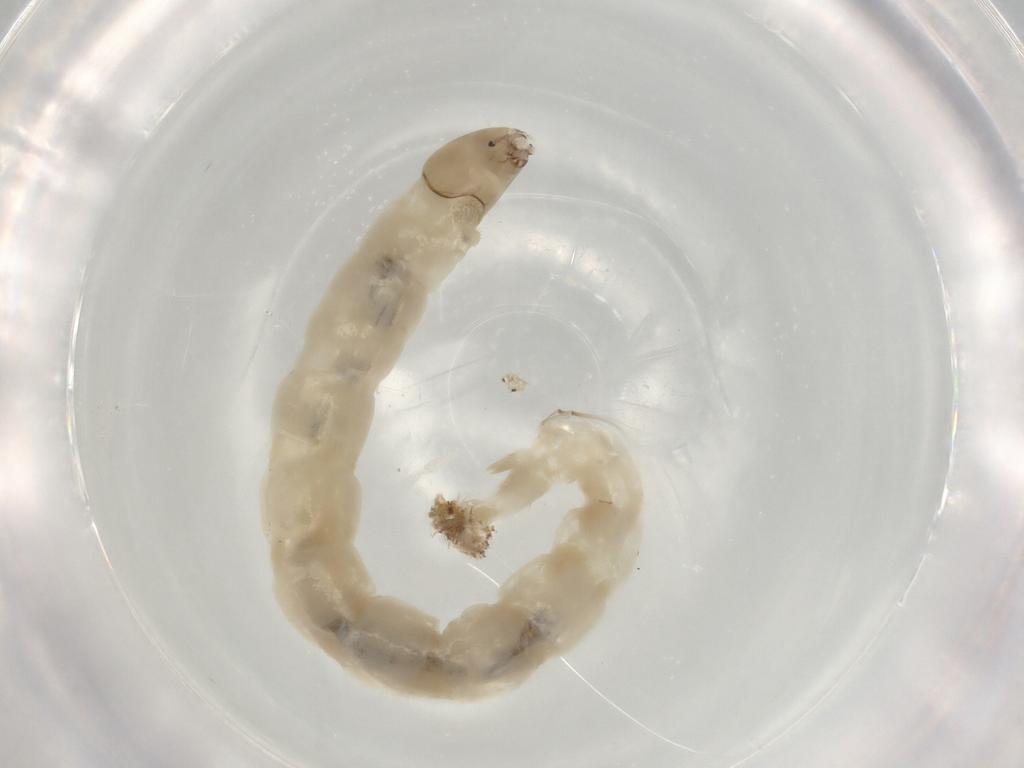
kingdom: Animalia
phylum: Arthropoda
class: Insecta
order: Diptera
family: Chironomidae
